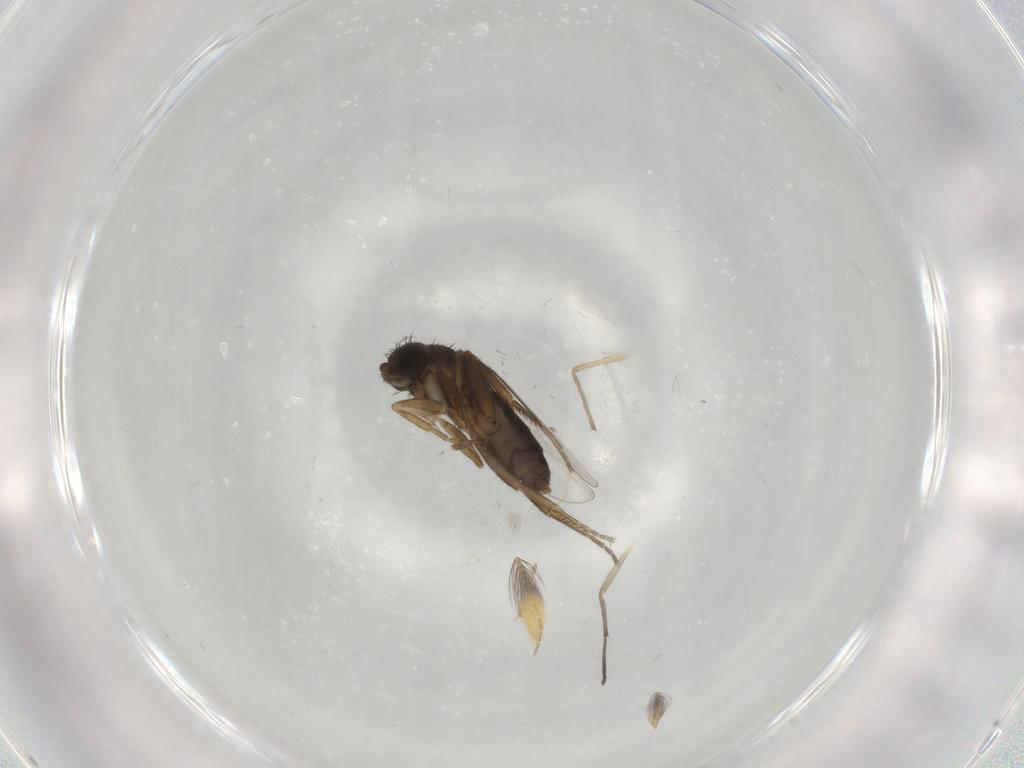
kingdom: Animalia
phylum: Arthropoda
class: Insecta
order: Diptera
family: Phoridae
